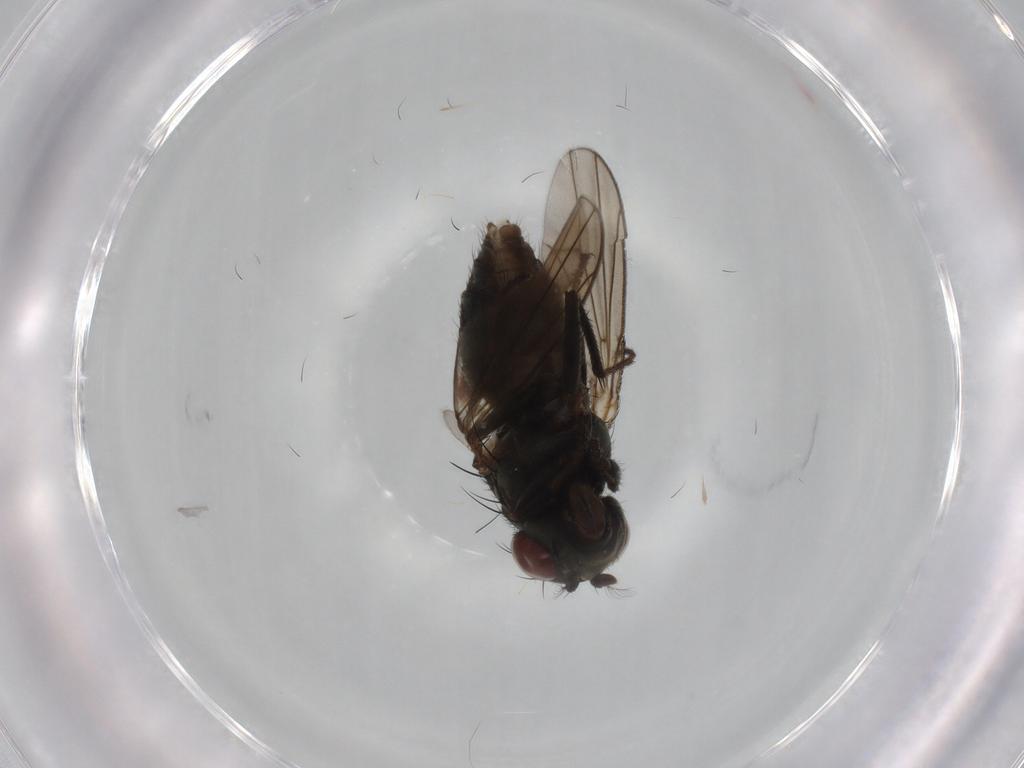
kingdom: Animalia
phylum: Arthropoda
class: Insecta
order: Diptera
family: Ephydridae
